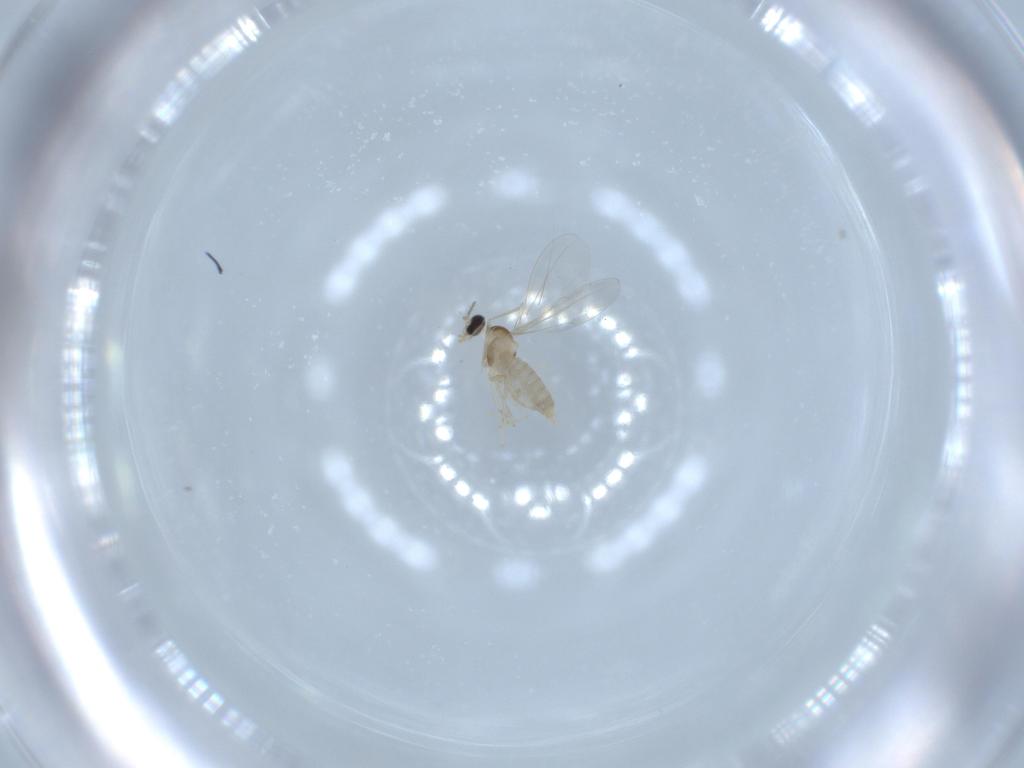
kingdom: Animalia
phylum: Arthropoda
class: Insecta
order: Diptera
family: Cecidomyiidae
